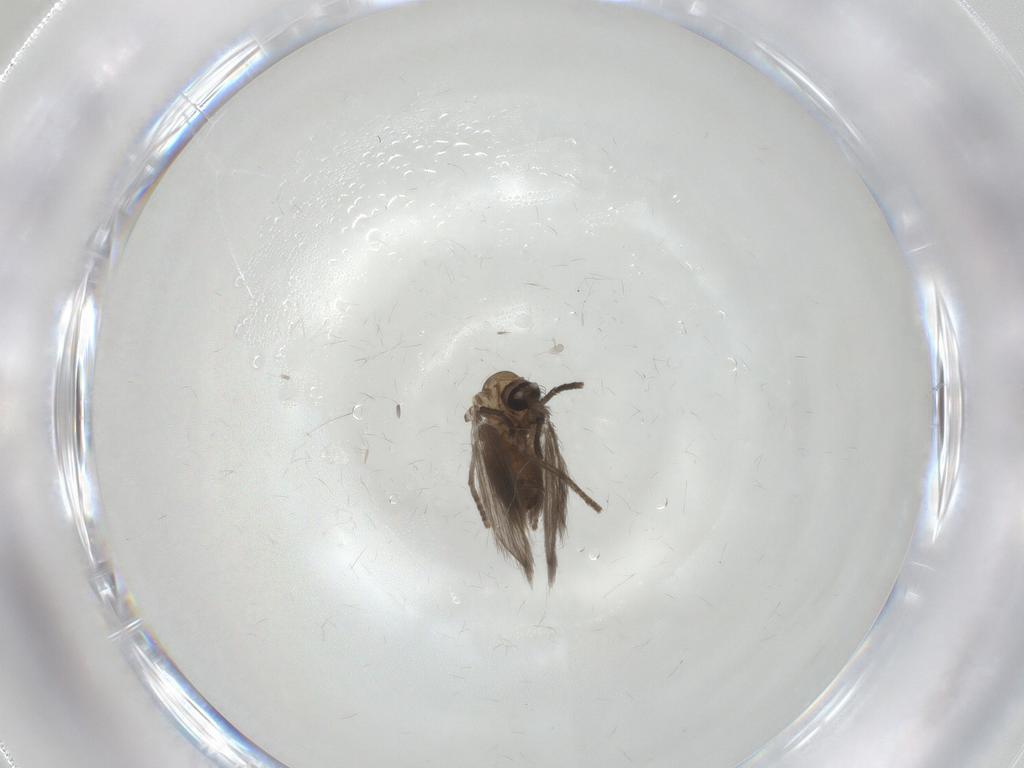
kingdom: Animalia
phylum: Arthropoda
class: Insecta
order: Diptera
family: Psychodidae
